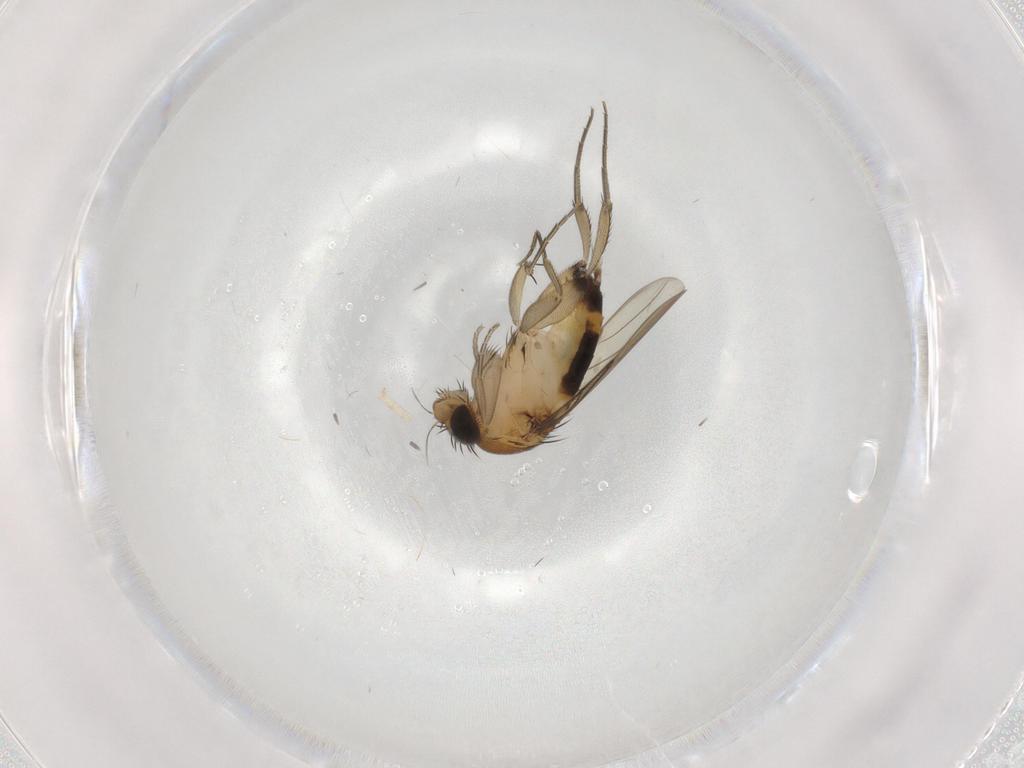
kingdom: Animalia
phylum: Arthropoda
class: Insecta
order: Diptera
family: Phoridae
